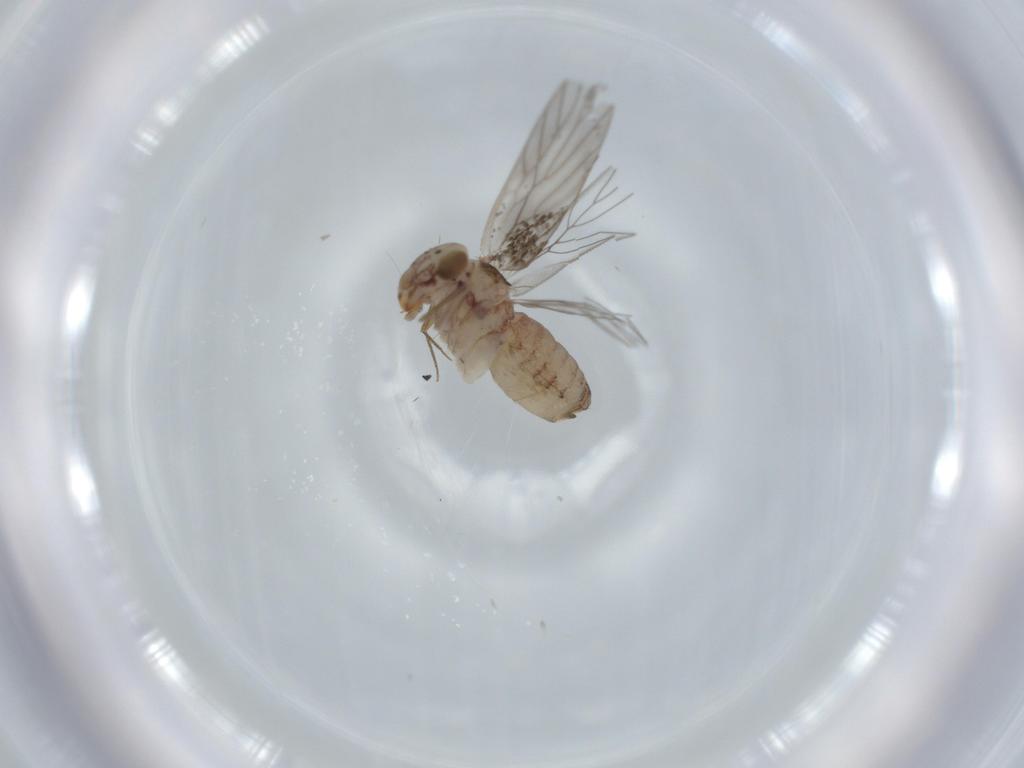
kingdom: Animalia
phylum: Arthropoda
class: Insecta
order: Psocodea
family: Lepidopsocidae
